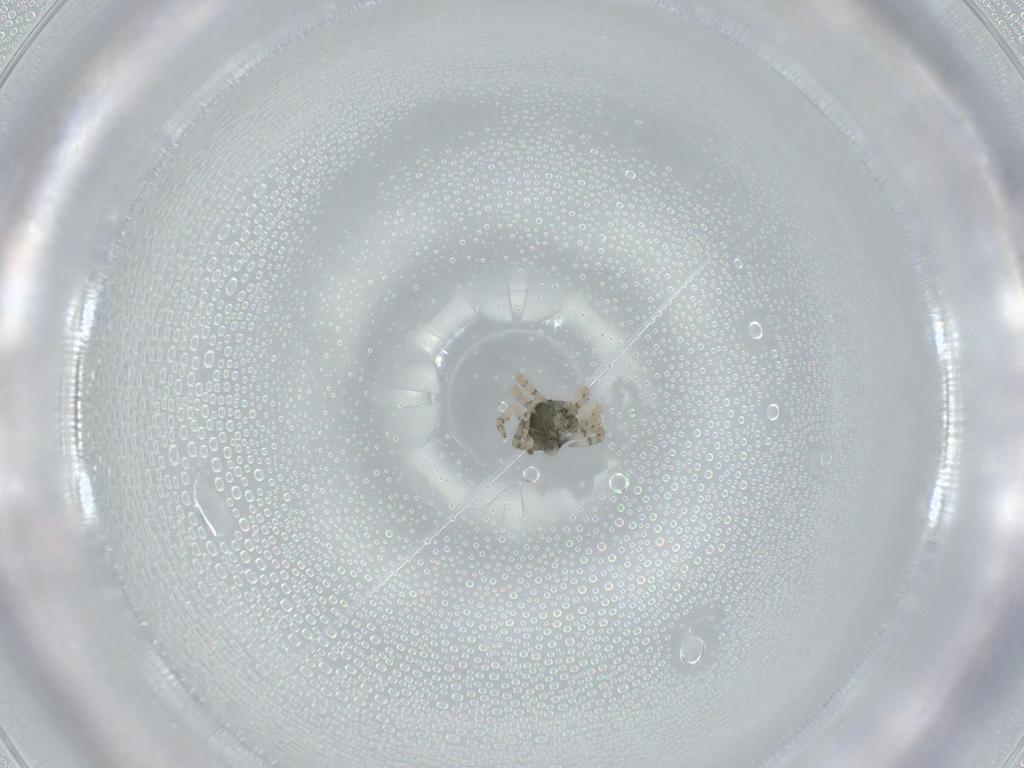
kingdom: Animalia
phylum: Arthropoda
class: Arachnida
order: Araneae
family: Theridiidae
